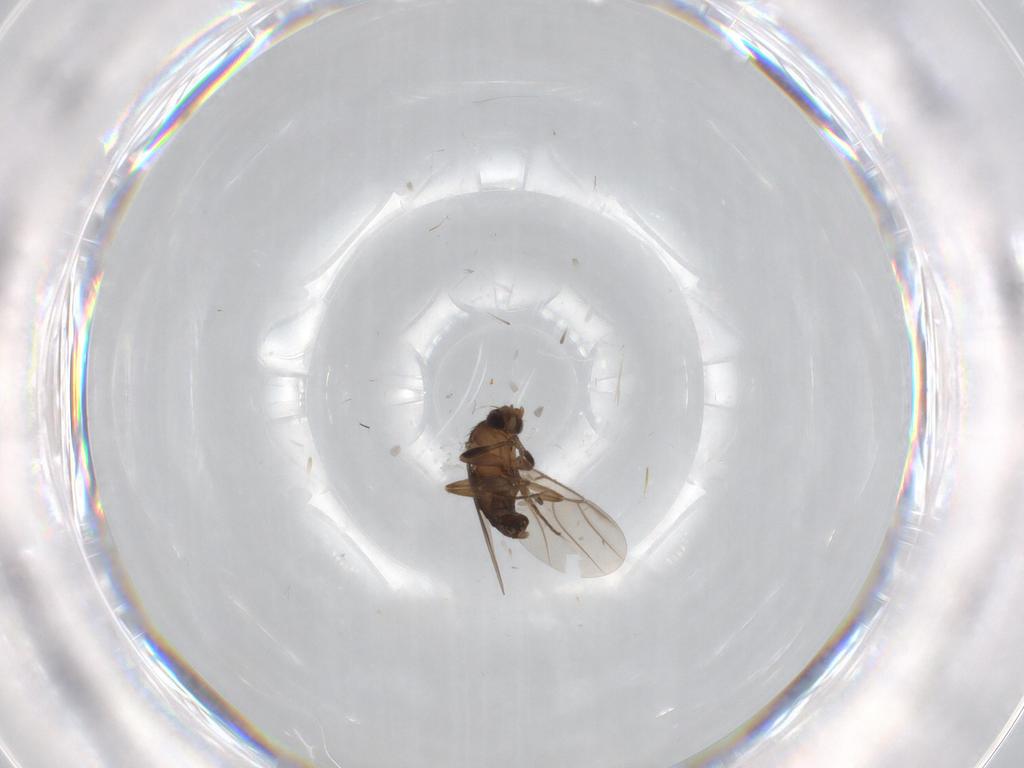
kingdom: Animalia
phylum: Arthropoda
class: Insecta
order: Diptera
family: Phoridae
